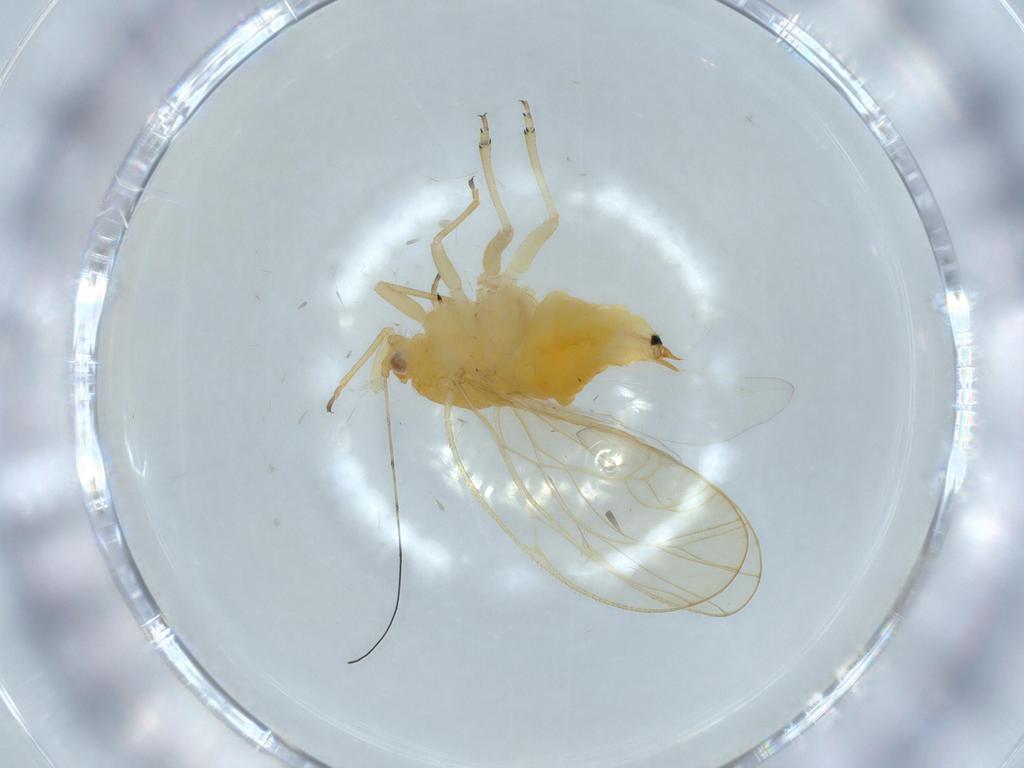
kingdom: Animalia
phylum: Arthropoda
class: Insecta
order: Hemiptera
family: Psyllidae
